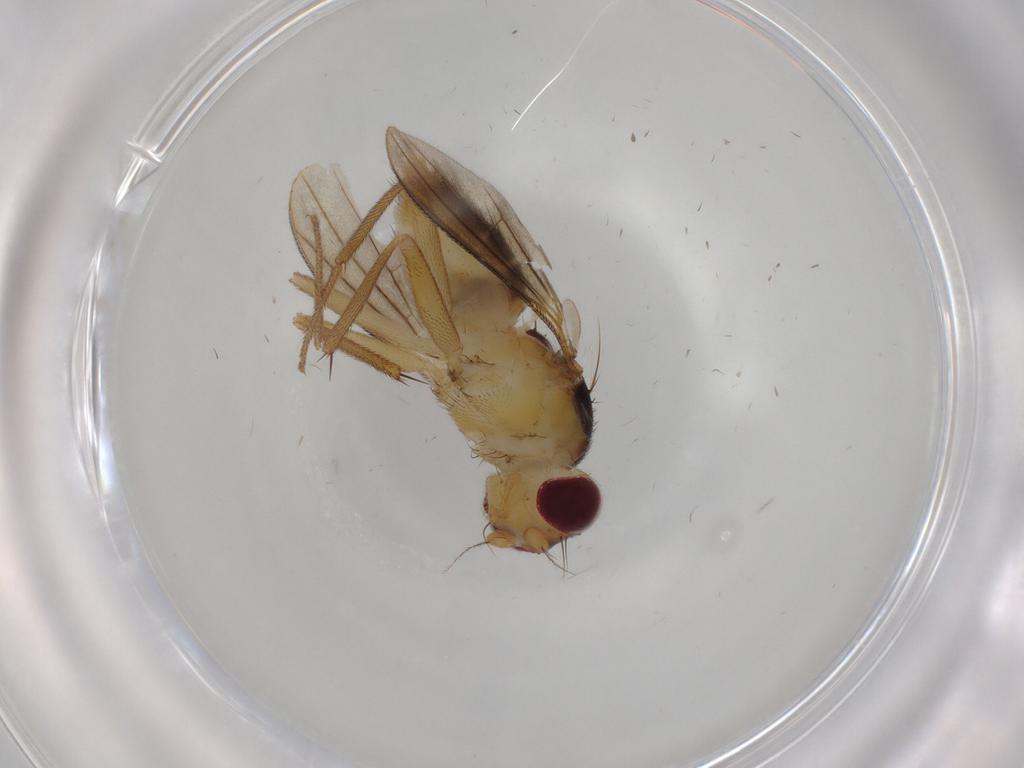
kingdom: Animalia
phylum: Arthropoda
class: Insecta
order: Diptera
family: Clusiidae
